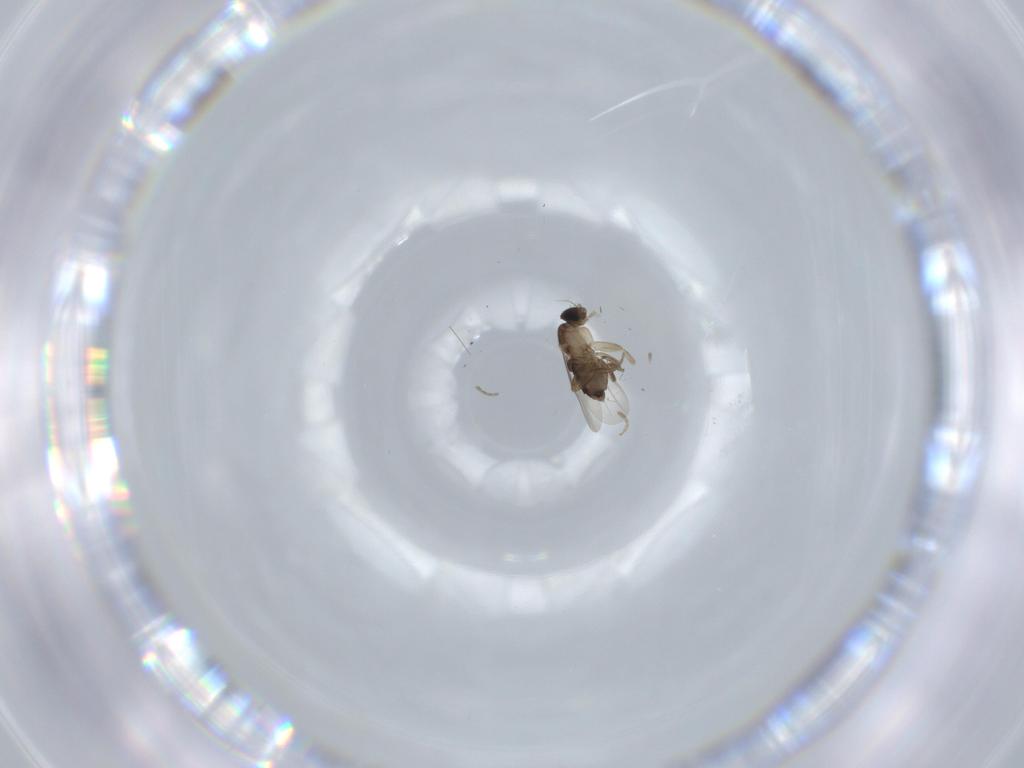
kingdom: Animalia
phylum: Arthropoda
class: Insecta
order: Diptera
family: Phoridae
